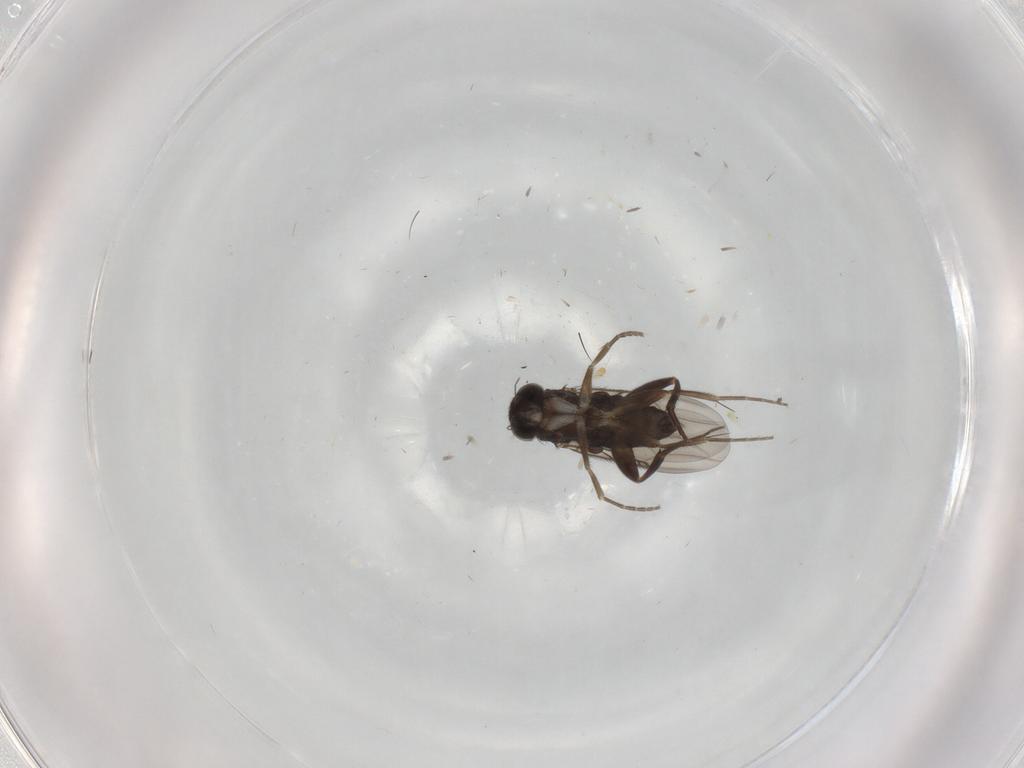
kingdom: Animalia
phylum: Arthropoda
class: Insecta
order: Diptera
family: Phoridae
